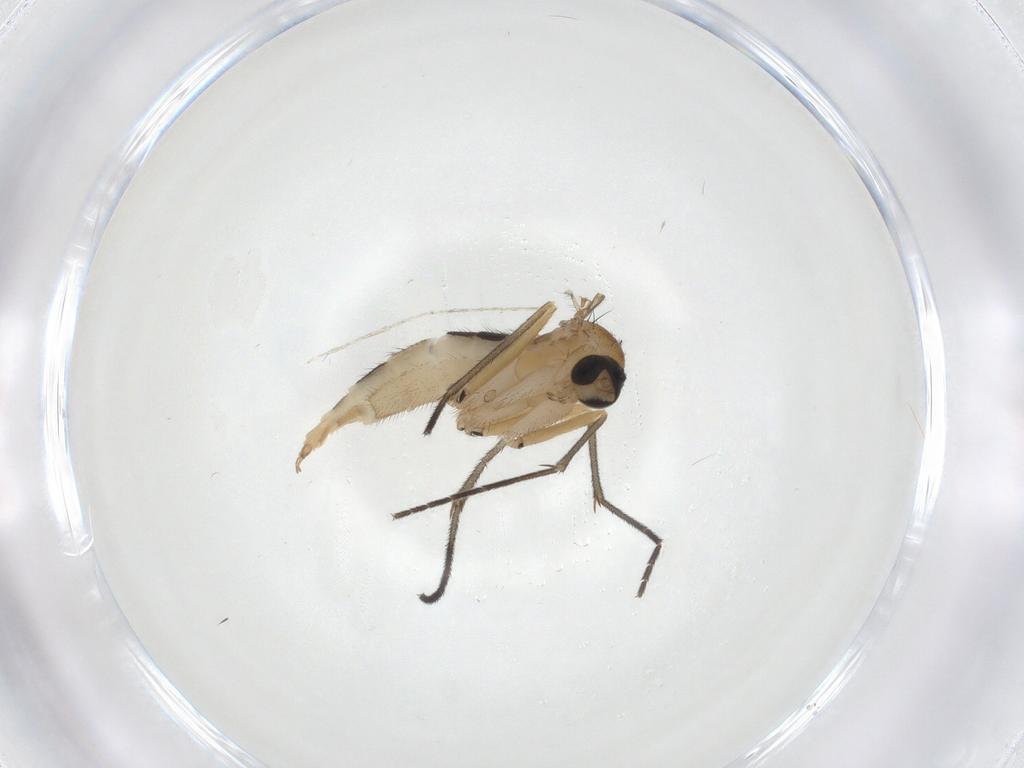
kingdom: Animalia
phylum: Arthropoda
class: Insecta
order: Diptera
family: Sciaridae
